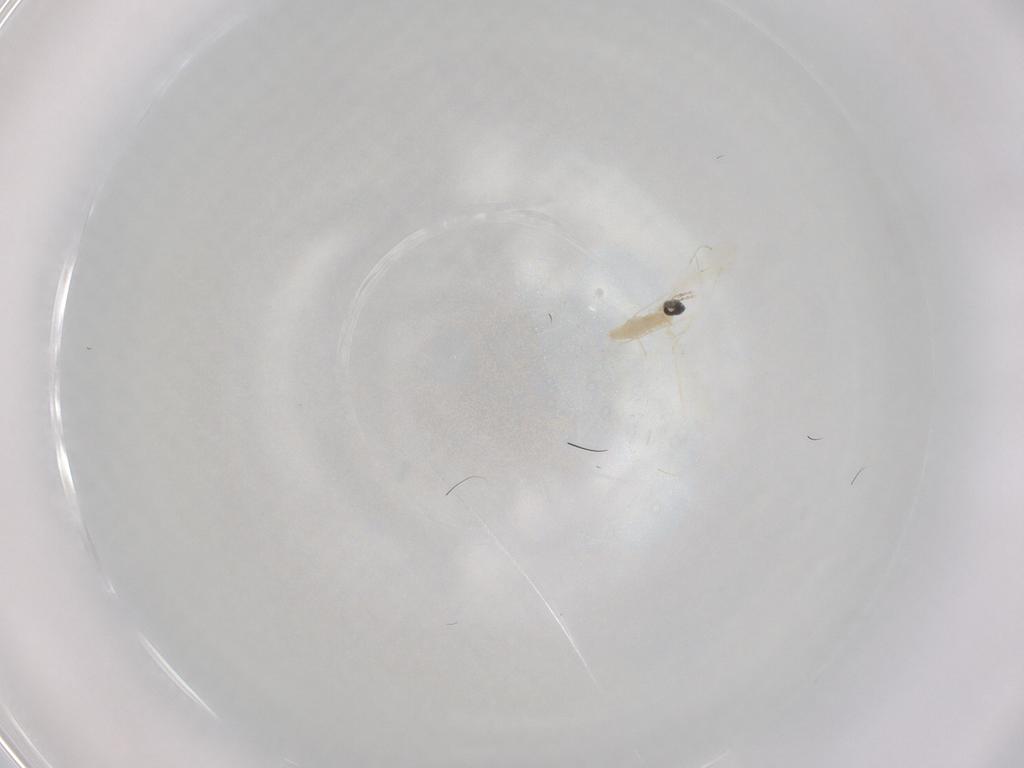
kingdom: Animalia
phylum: Arthropoda
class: Insecta
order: Diptera
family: Cecidomyiidae
